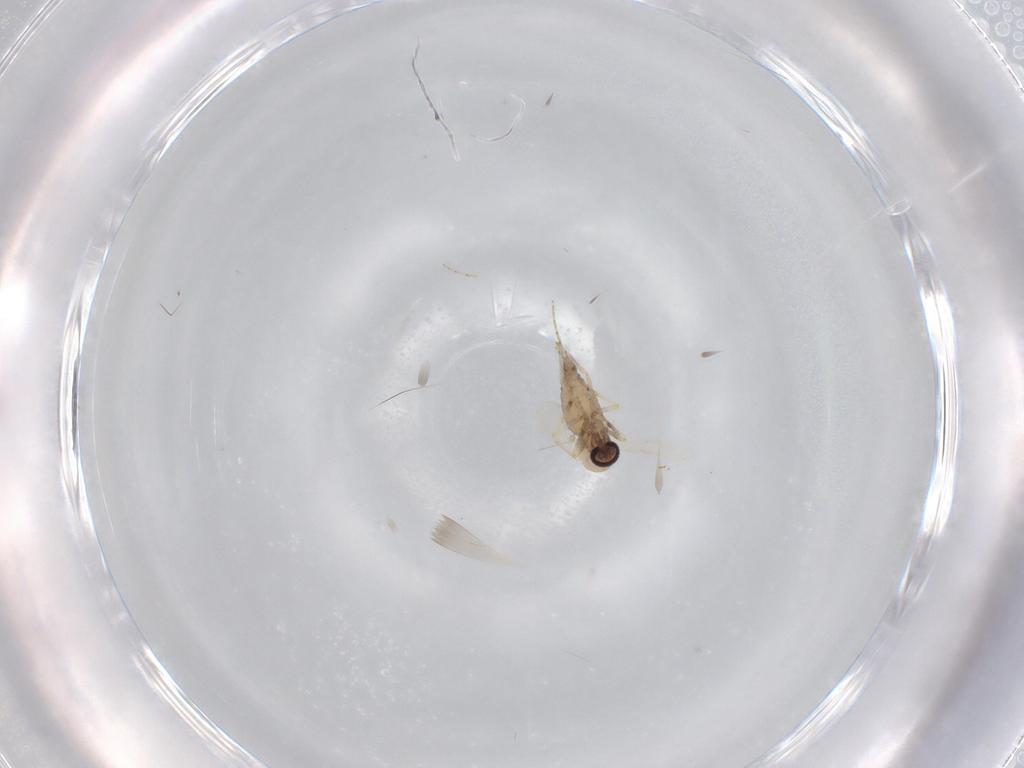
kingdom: Animalia
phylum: Arthropoda
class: Insecta
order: Diptera
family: Ceratopogonidae
